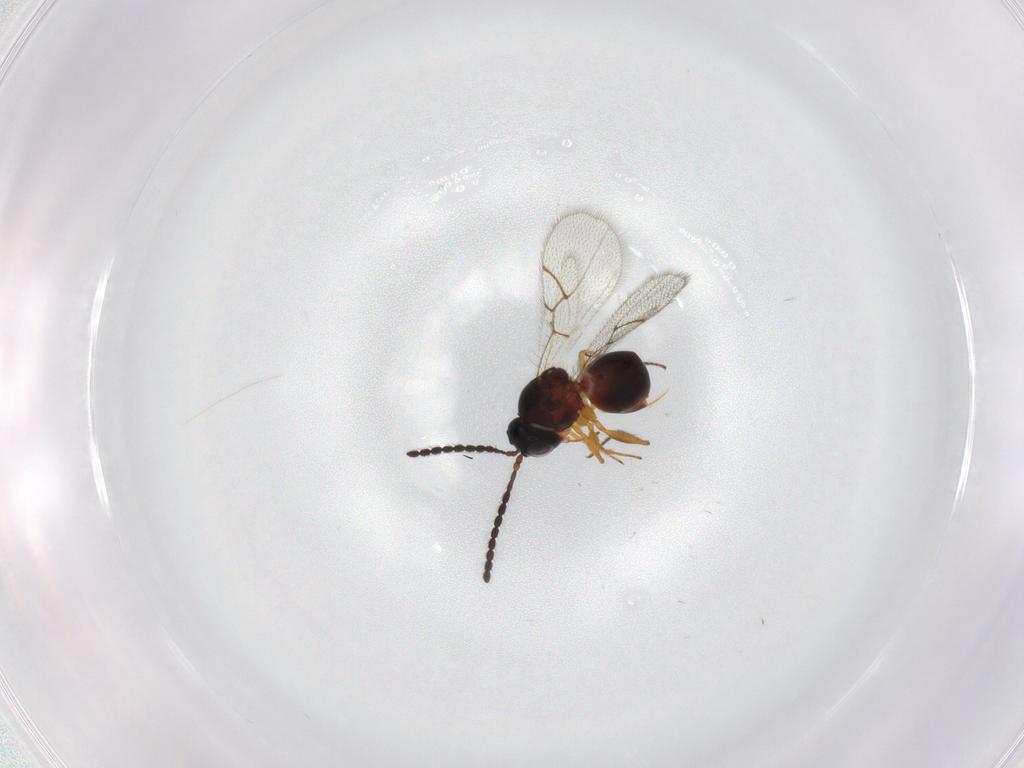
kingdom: Animalia
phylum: Arthropoda
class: Insecta
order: Hymenoptera
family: Figitidae
